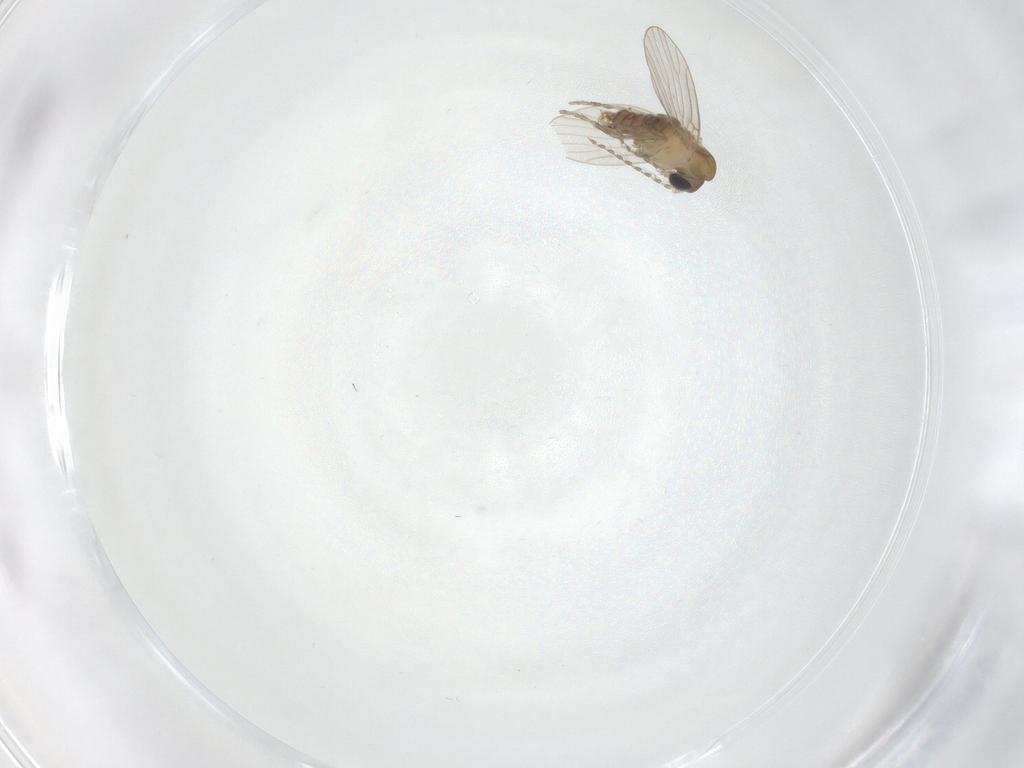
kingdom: Animalia
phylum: Arthropoda
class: Insecta
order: Diptera
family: Psychodidae
